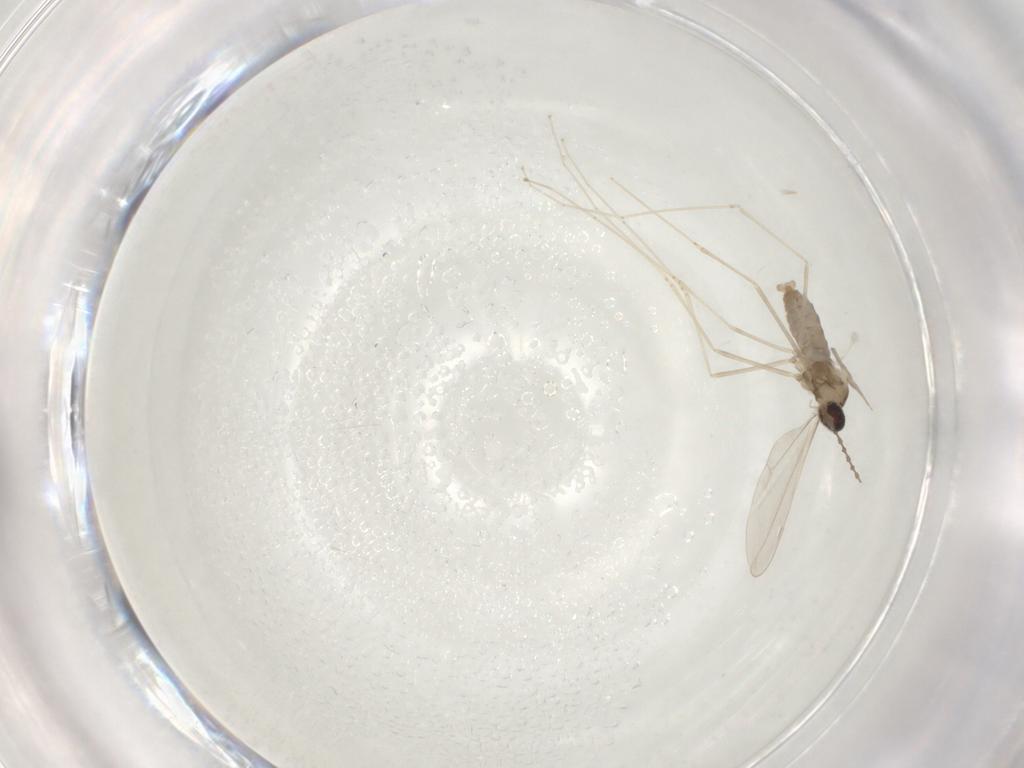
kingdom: Animalia
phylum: Arthropoda
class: Insecta
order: Diptera
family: Cecidomyiidae
